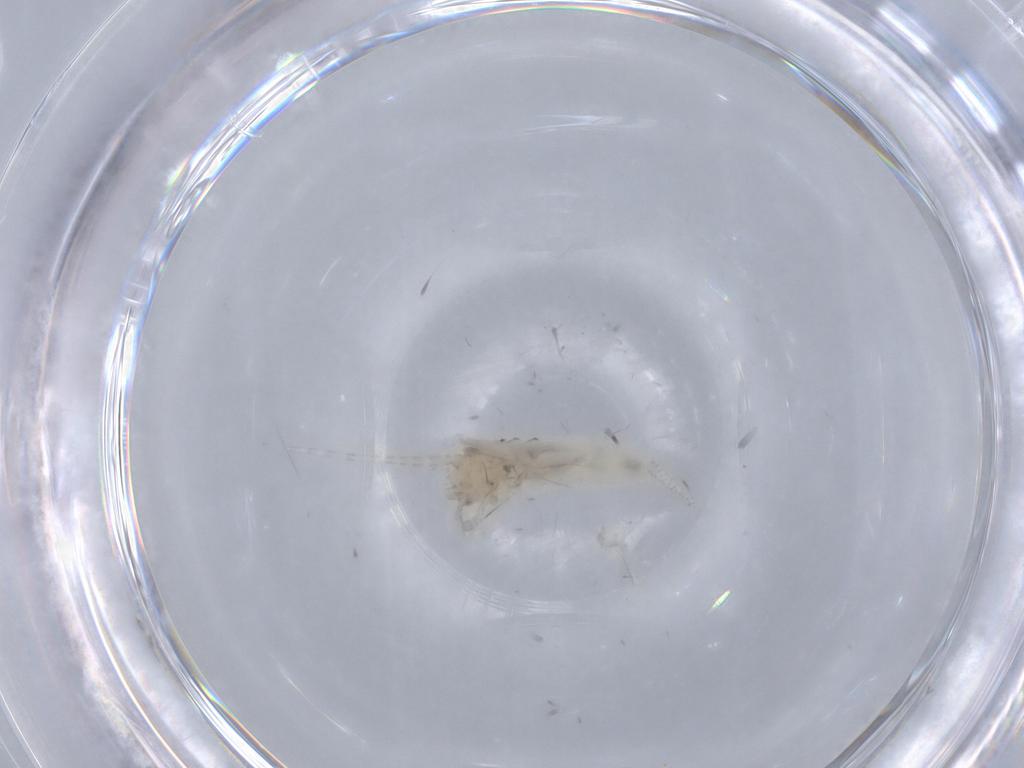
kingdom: Animalia
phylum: Arthropoda
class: Insecta
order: Orthoptera
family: Trigonidiidae
